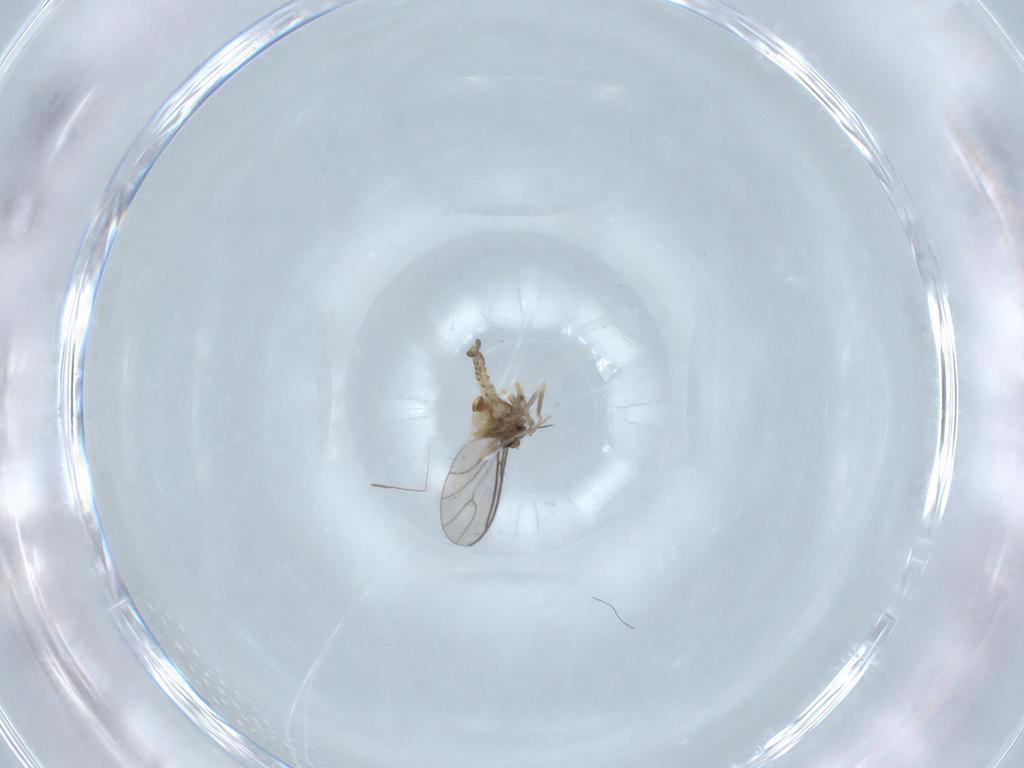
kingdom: Animalia
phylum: Arthropoda
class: Insecta
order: Diptera
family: Ceratopogonidae
